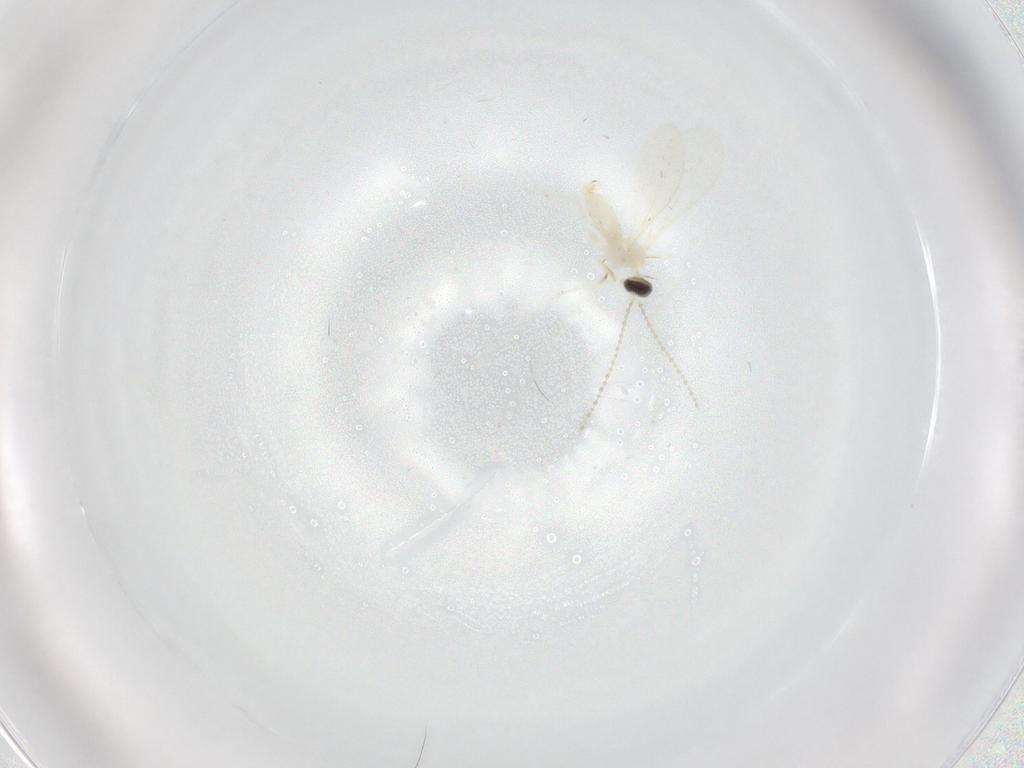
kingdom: Animalia
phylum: Arthropoda
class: Insecta
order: Diptera
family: Cecidomyiidae
